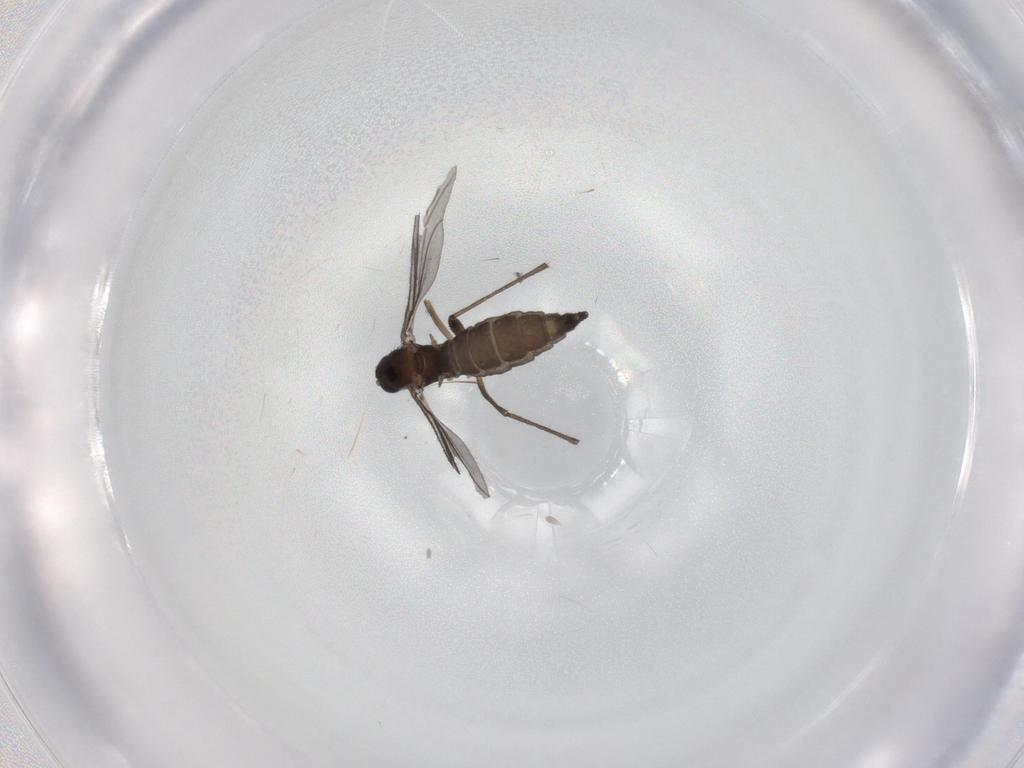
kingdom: Animalia
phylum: Arthropoda
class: Insecta
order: Diptera
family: Sciaridae
